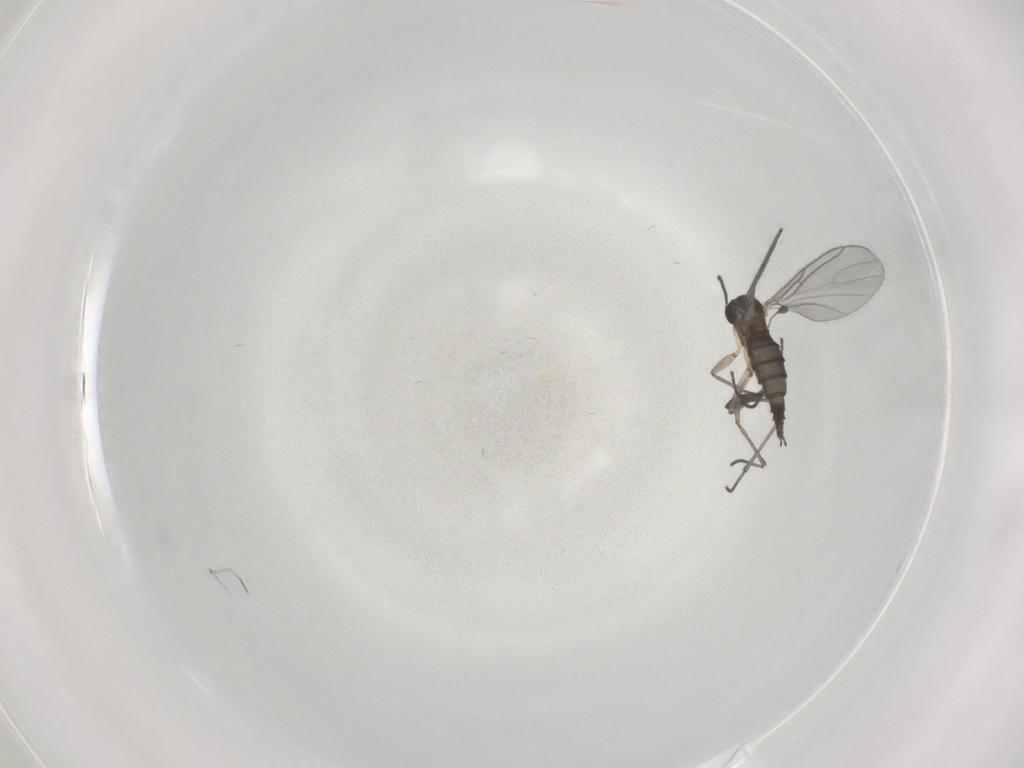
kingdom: Animalia
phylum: Arthropoda
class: Insecta
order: Diptera
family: Sciaridae
